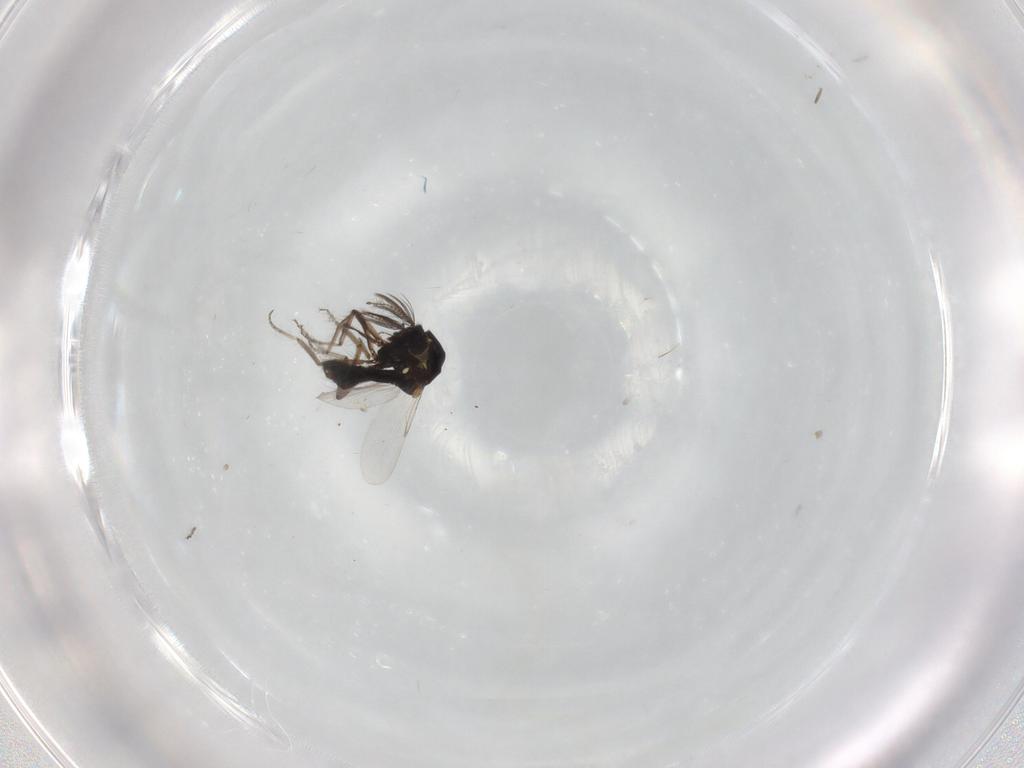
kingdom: Animalia
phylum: Arthropoda
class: Insecta
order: Diptera
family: Ceratopogonidae
